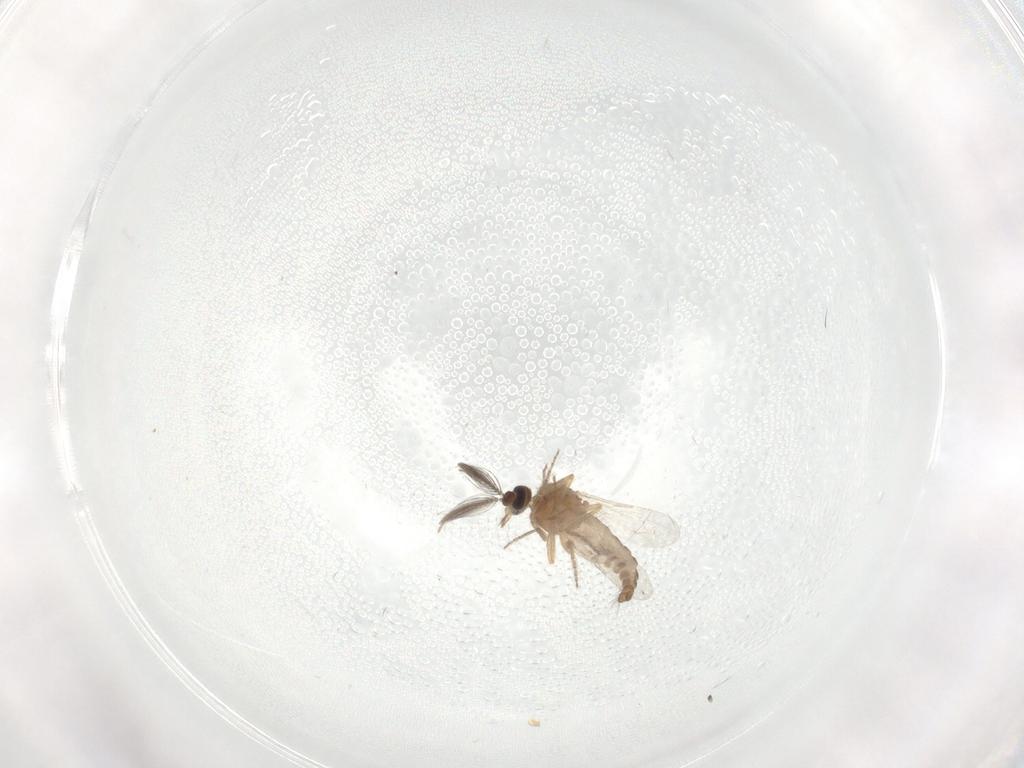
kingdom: Animalia
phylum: Arthropoda
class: Insecta
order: Diptera
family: Ceratopogonidae
